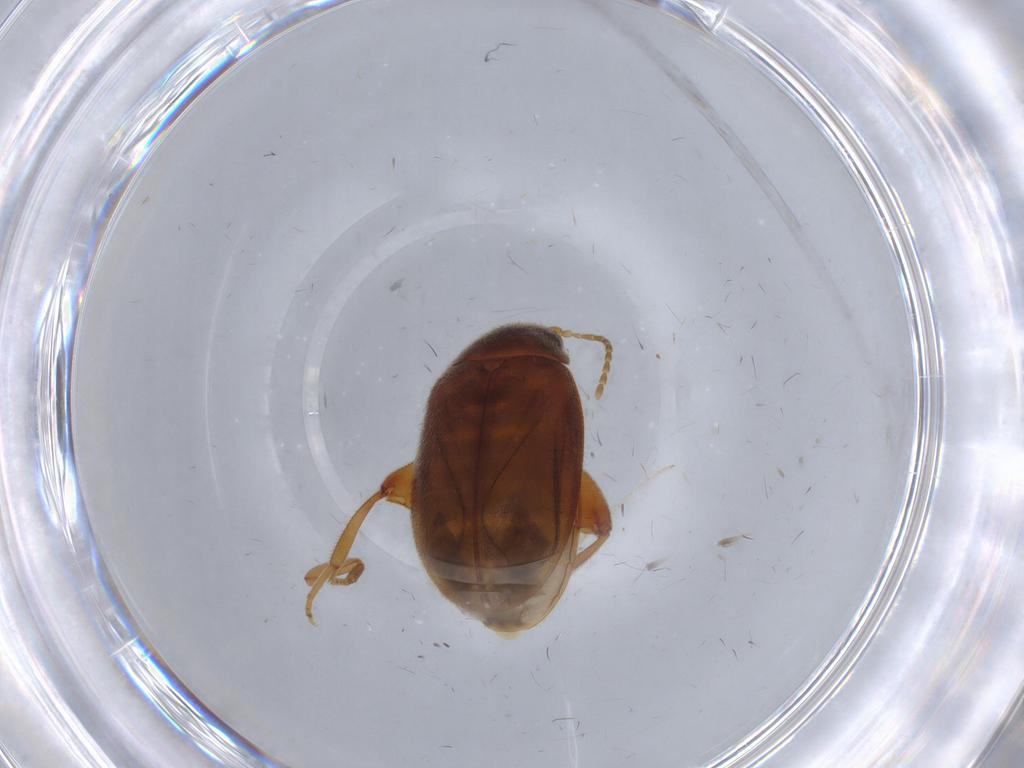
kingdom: Animalia
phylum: Arthropoda
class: Insecta
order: Coleoptera
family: Scirtidae
